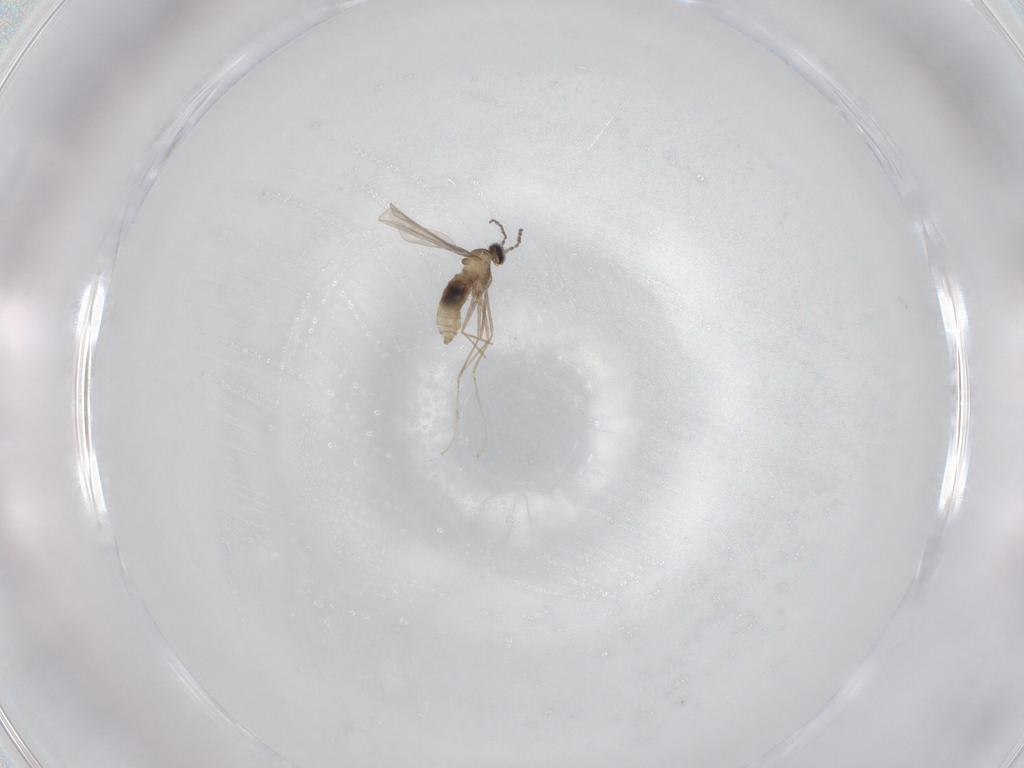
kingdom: Animalia
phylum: Arthropoda
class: Insecta
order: Diptera
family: Cecidomyiidae
